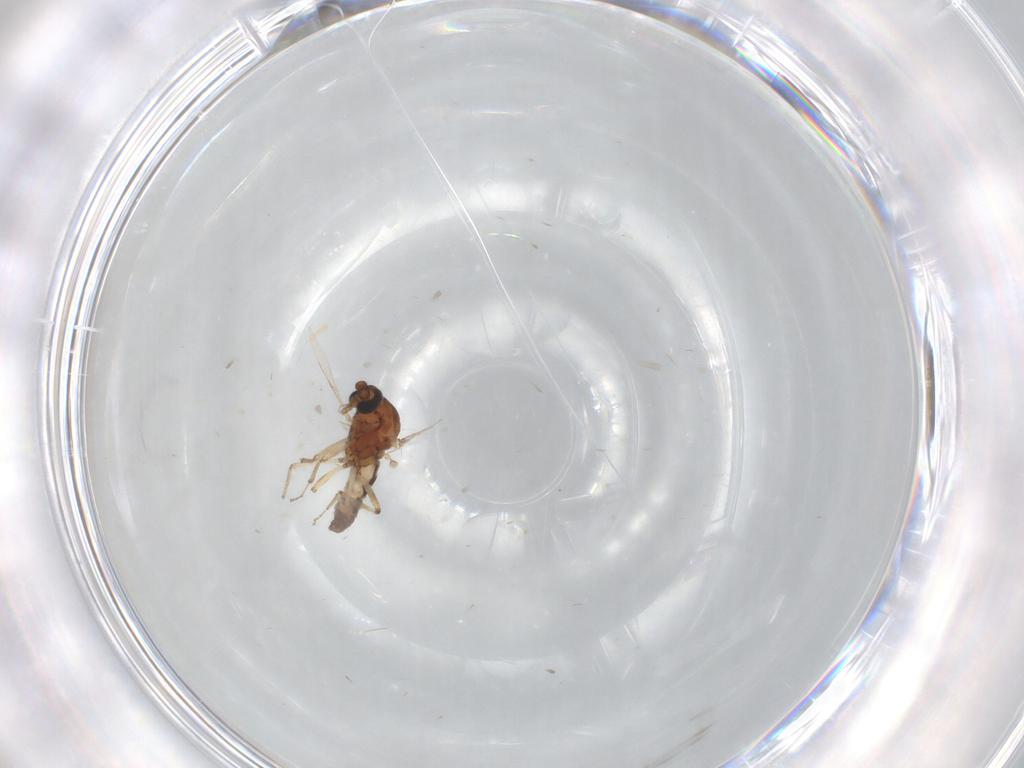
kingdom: Animalia
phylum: Arthropoda
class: Insecta
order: Diptera
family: Ceratopogonidae
